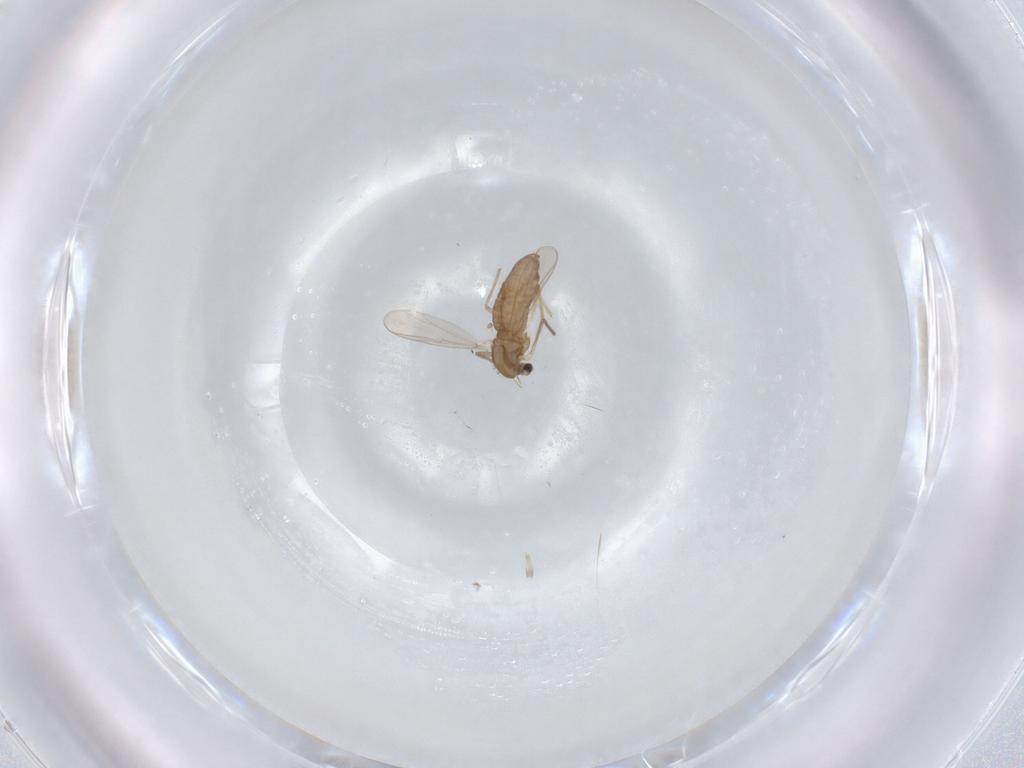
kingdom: Animalia
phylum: Arthropoda
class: Insecta
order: Diptera
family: Chironomidae
